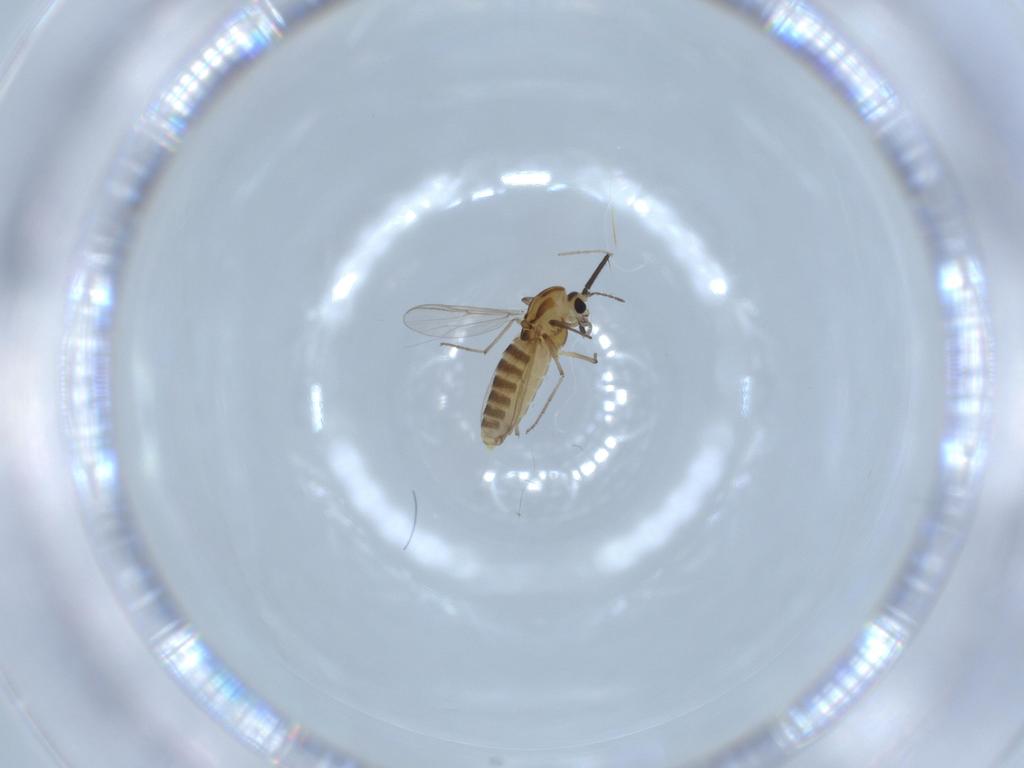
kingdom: Animalia
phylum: Arthropoda
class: Insecta
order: Diptera
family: Chironomidae
